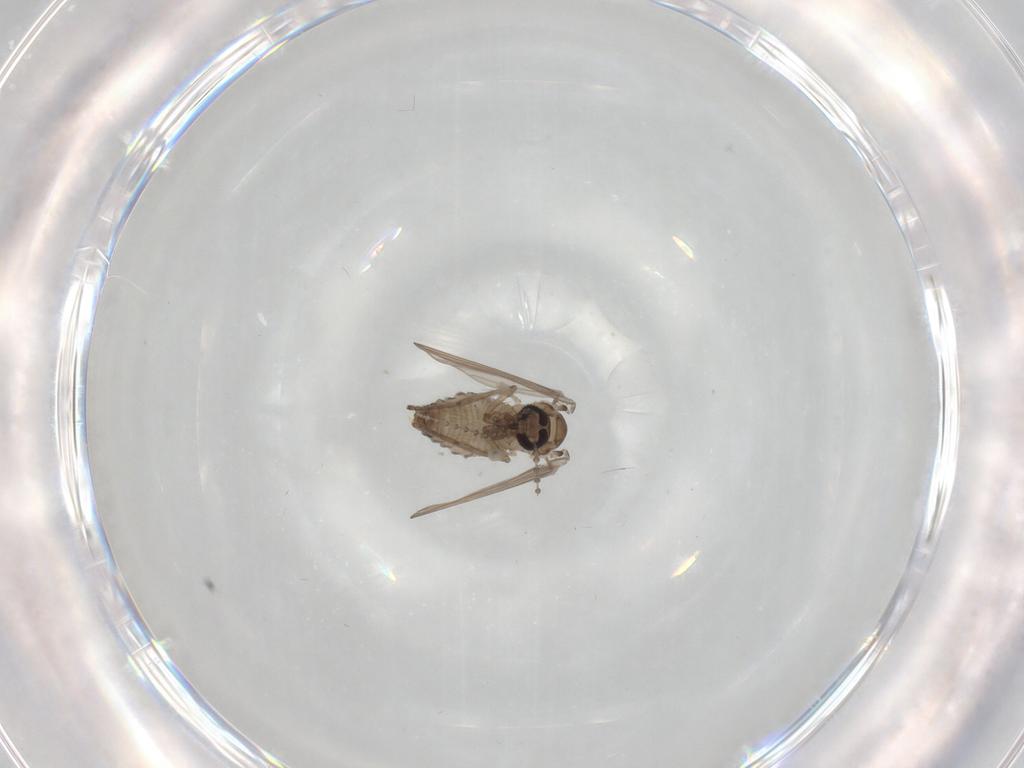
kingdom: Animalia
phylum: Arthropoda
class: Insecta
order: Diptera
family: Psychodidae
